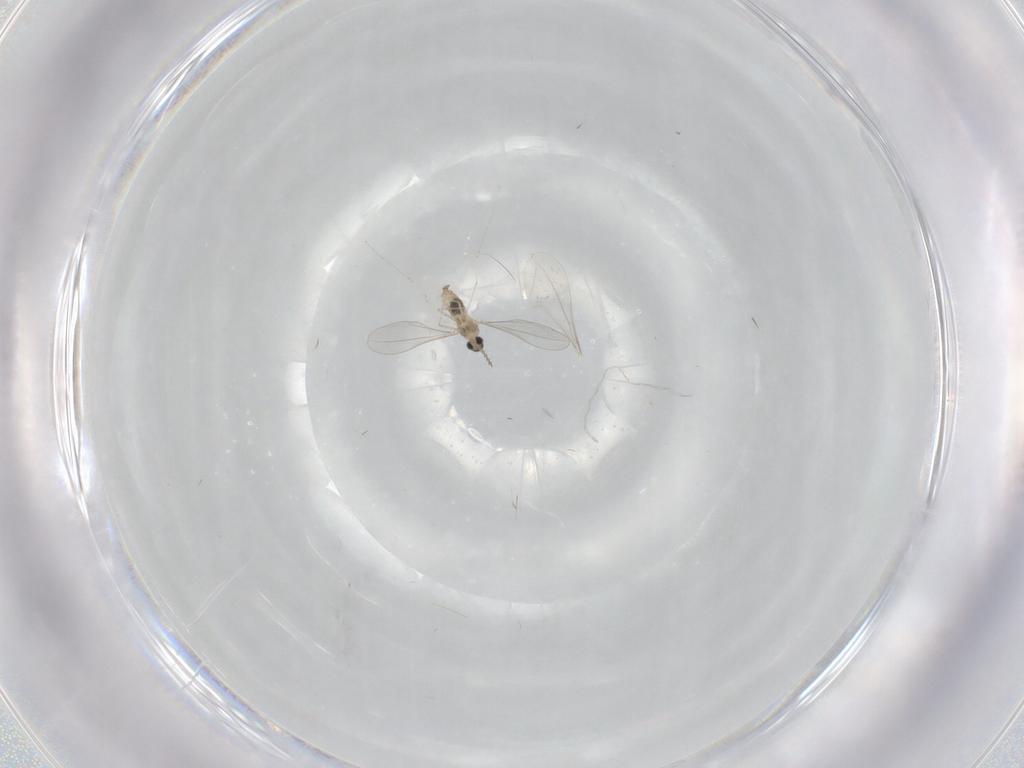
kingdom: Animalia
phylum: Arthropoda
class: Insecta
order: Diptera
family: Cecidomyiidae
